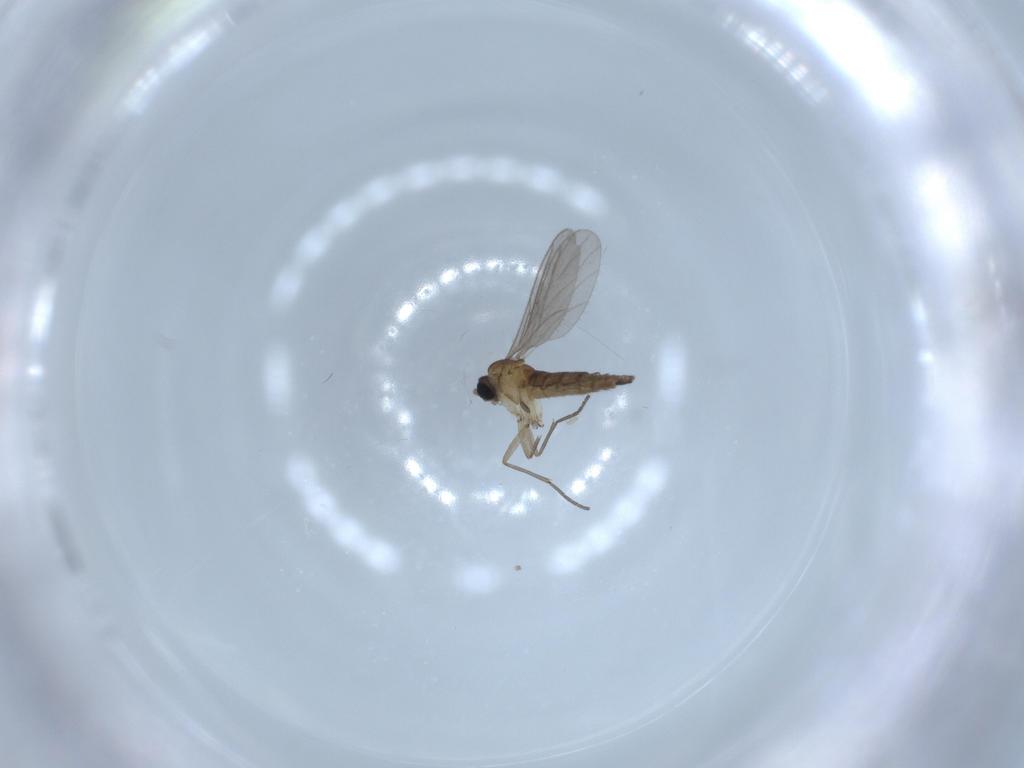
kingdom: Animalia
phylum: Arthropoda
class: Insecta
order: Diptera
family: Sciaridae
